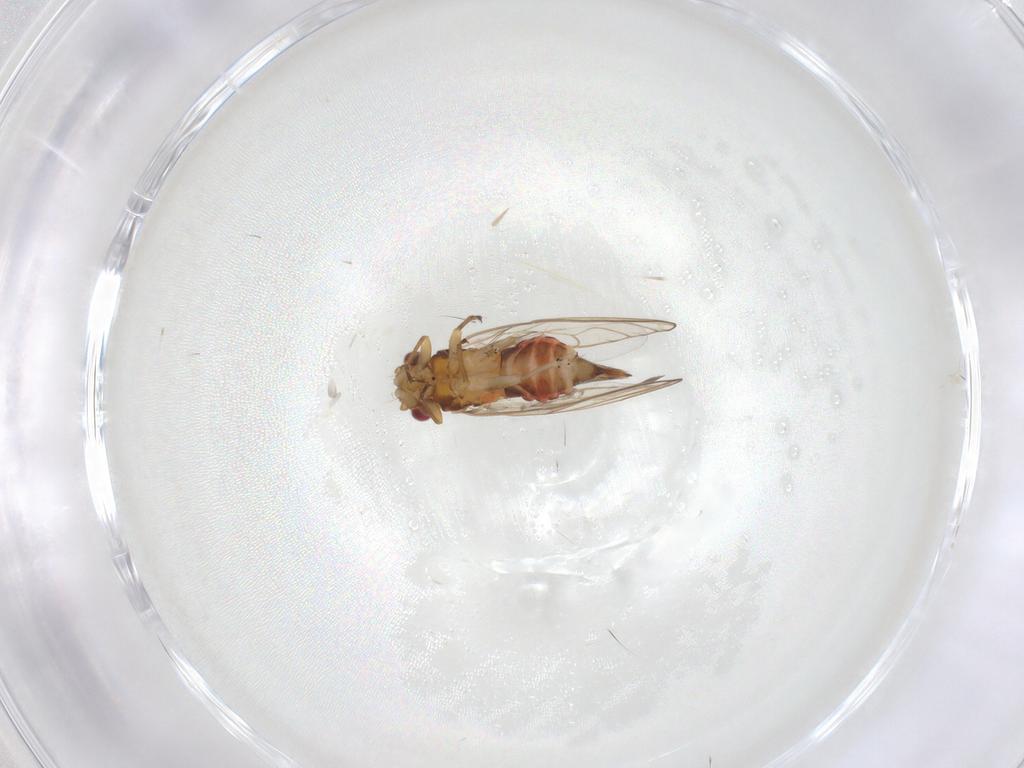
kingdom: Animalia
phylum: Arthropoda
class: Insecta
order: Hemiptera
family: Psyllidae
